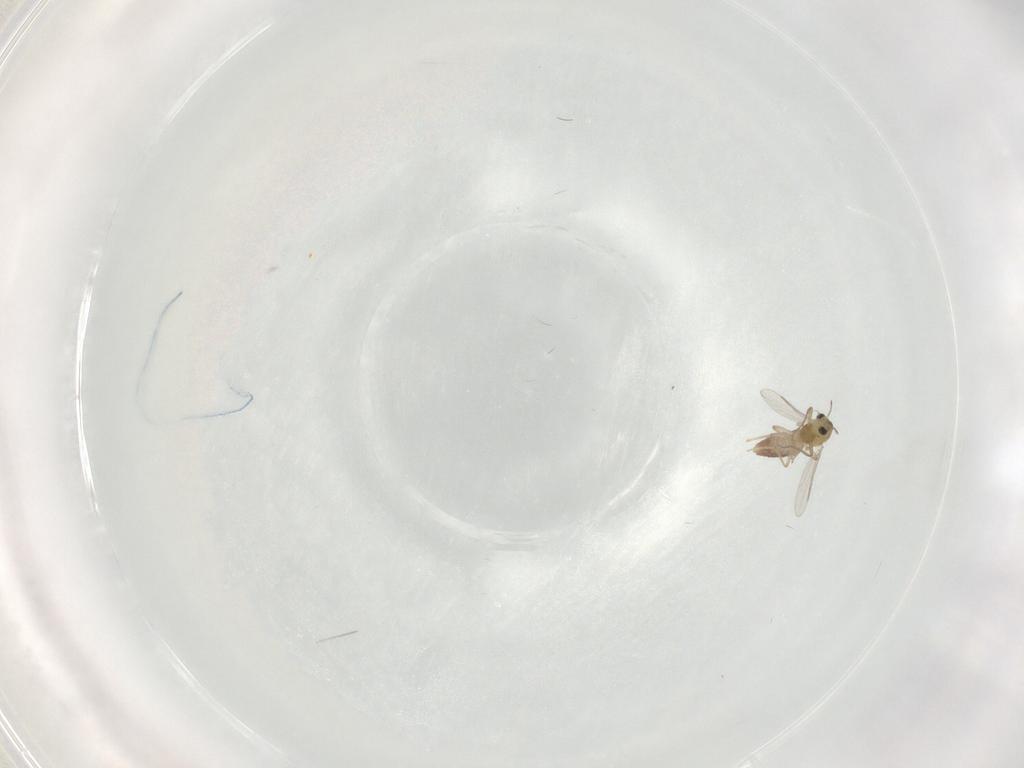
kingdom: Animalia
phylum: Arthropoda
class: Insecta
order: Diptera
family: Chironomidae
